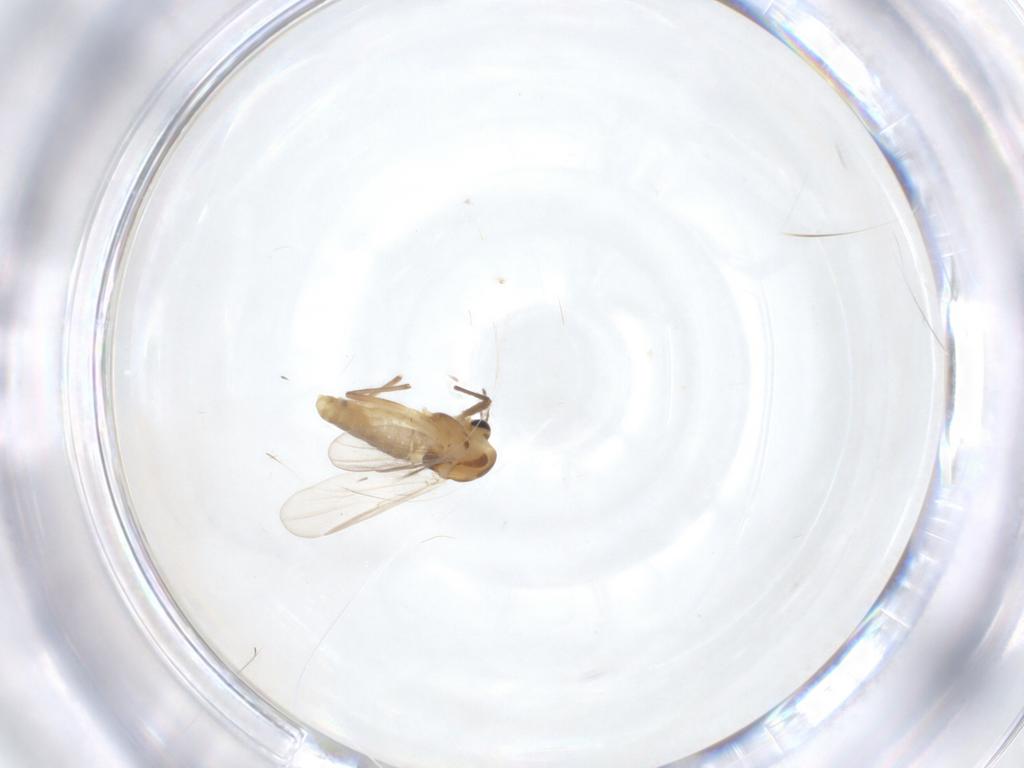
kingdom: Animalia
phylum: Arthropoda
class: Insecta
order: Diptera
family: Chironomidae
